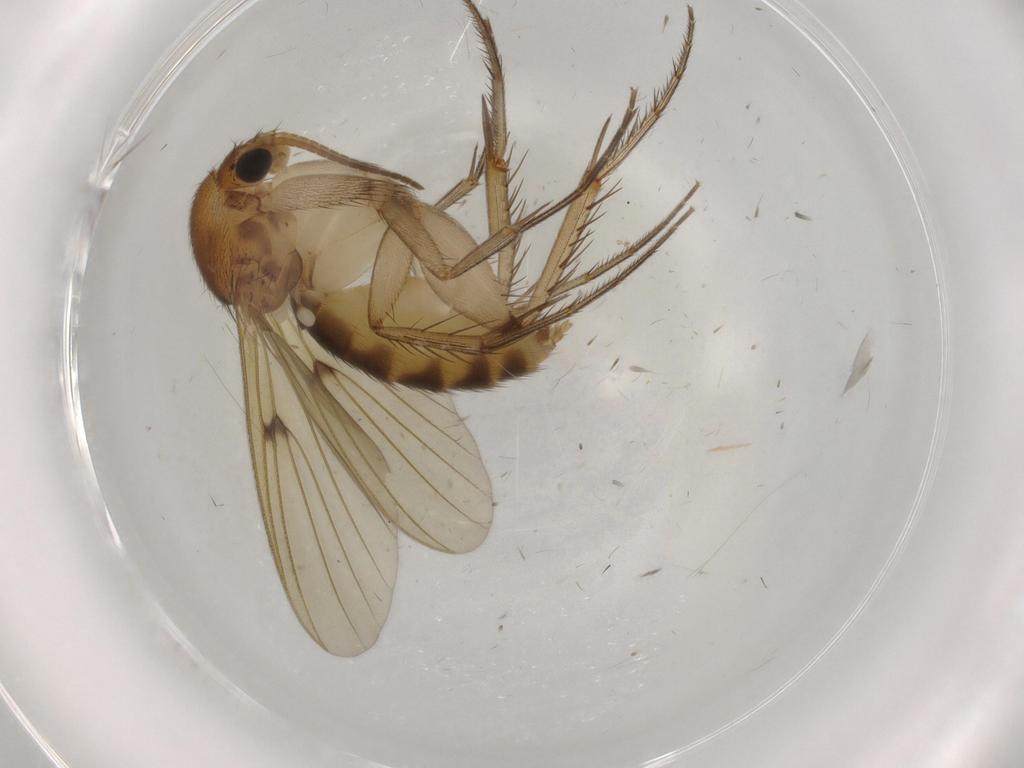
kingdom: Animalia
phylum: Arthropoda
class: Insecta
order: Diptera
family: Mycetophilidae
